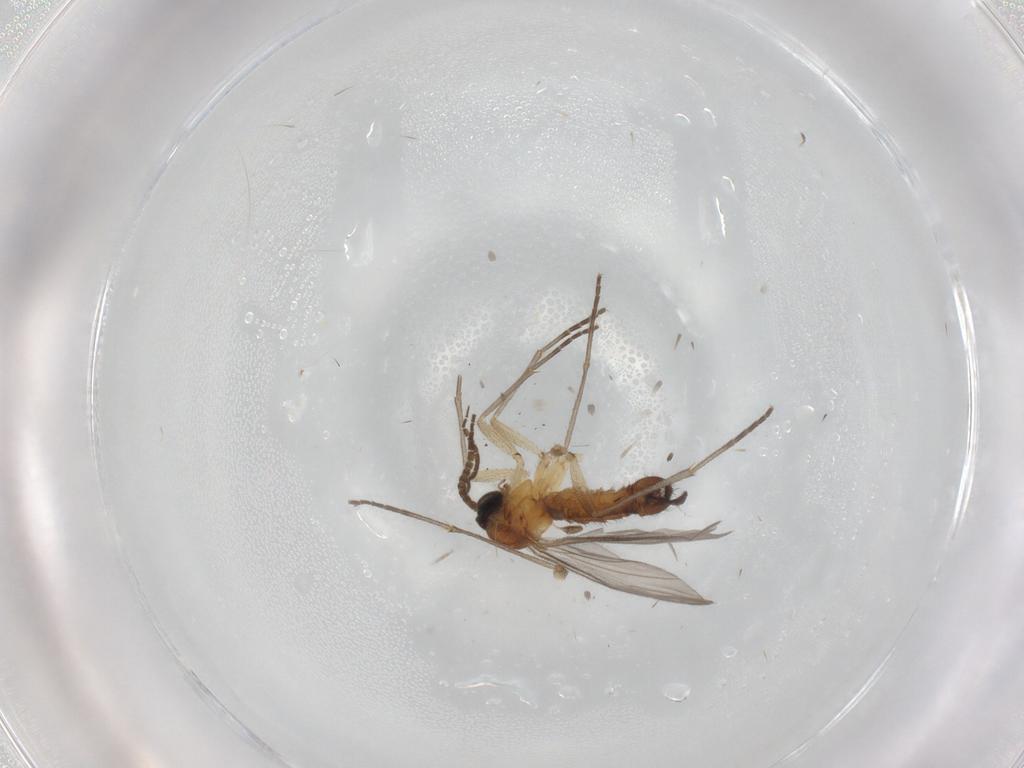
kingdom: Animalia
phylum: Arthropoda
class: Insecta
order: Diptera
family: Sciaridae
